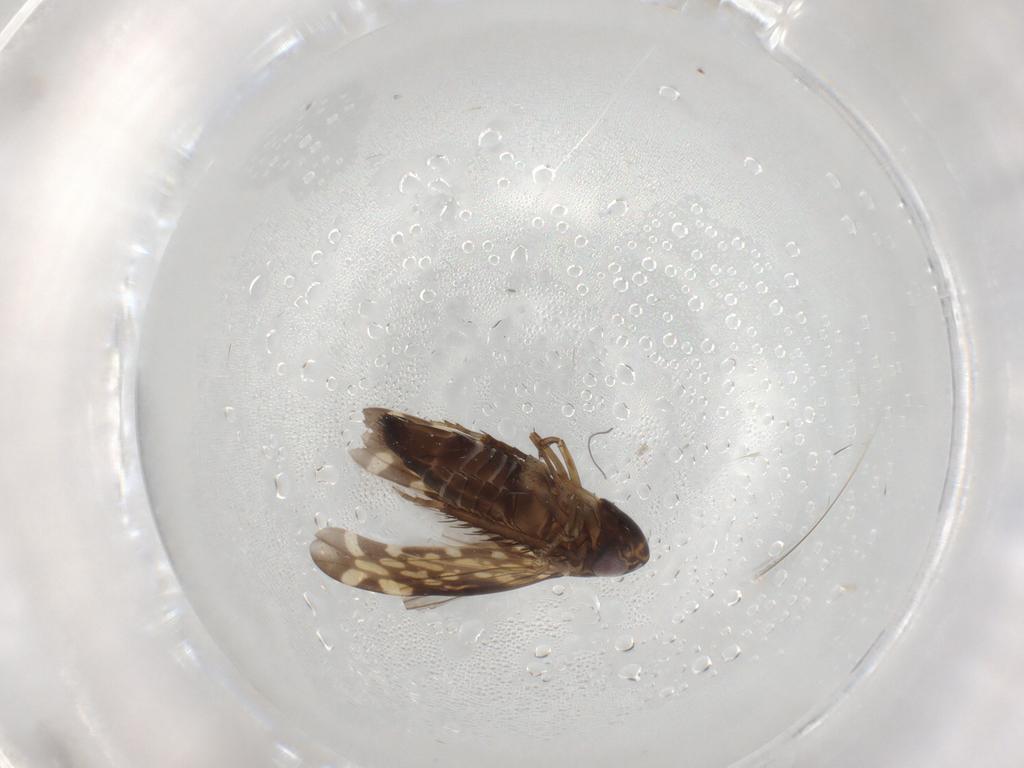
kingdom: Animalia
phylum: Arthropoda
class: Insecta
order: Hemiptera
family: Cicadellidae
